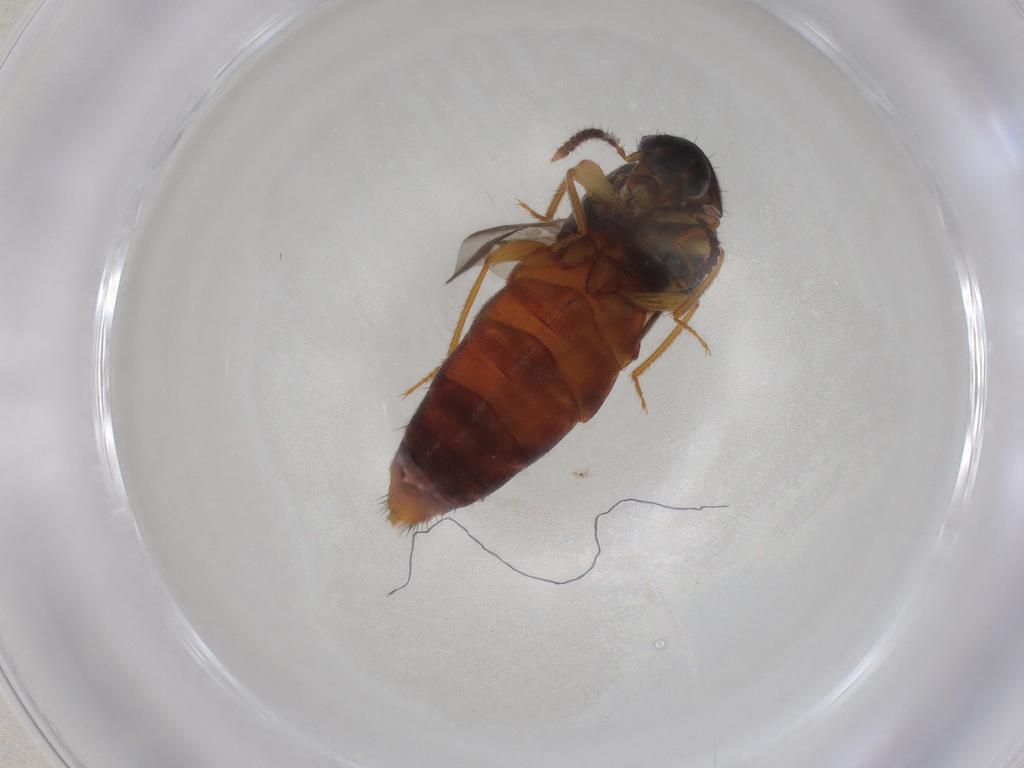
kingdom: Animalia
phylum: Arthropoda
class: Insecta
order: Coleoptera
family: Staphylinidae
